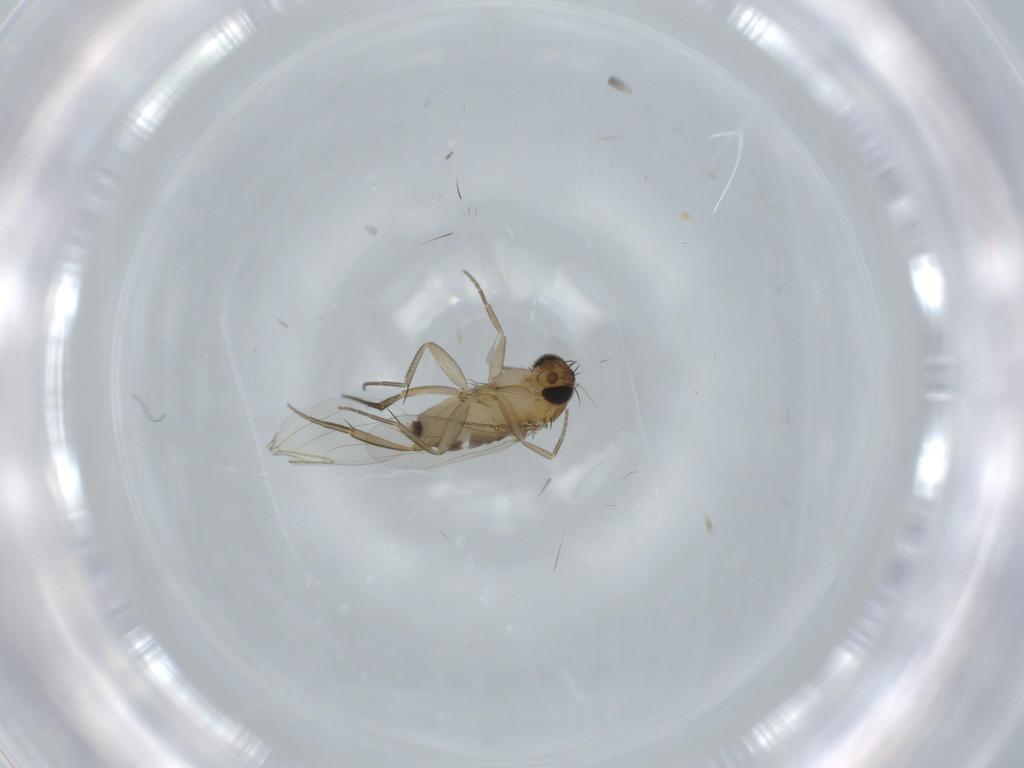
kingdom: Animalia
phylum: Arthropoda
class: Insecta
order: Diptera
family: Phoridae
